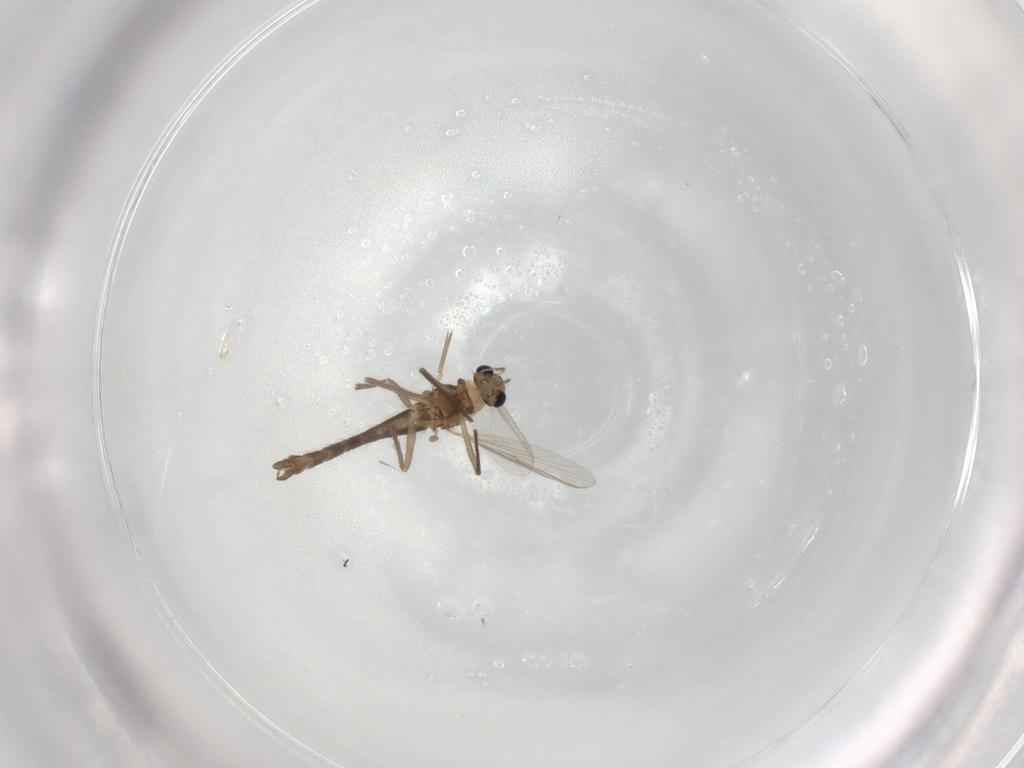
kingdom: Animalia
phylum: Arthropoda
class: Insecta
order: Diptera
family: Chironomidae
